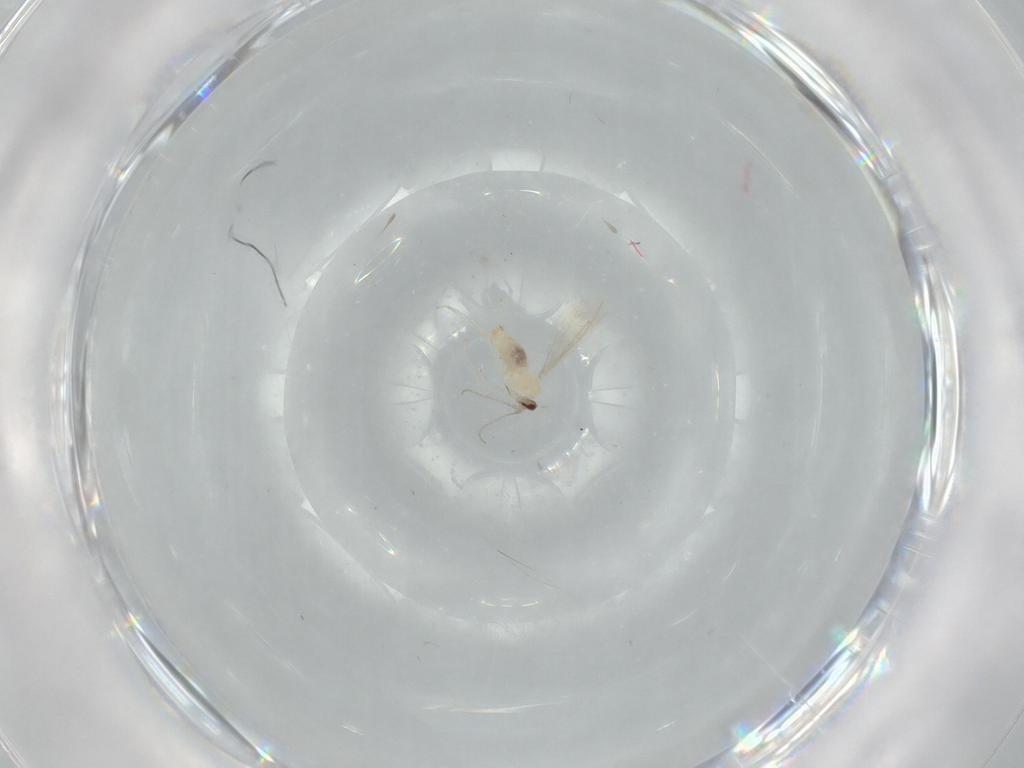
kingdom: Animalia
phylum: Arthropoda
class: Insecta
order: Diptera
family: Cecidomyiidae
